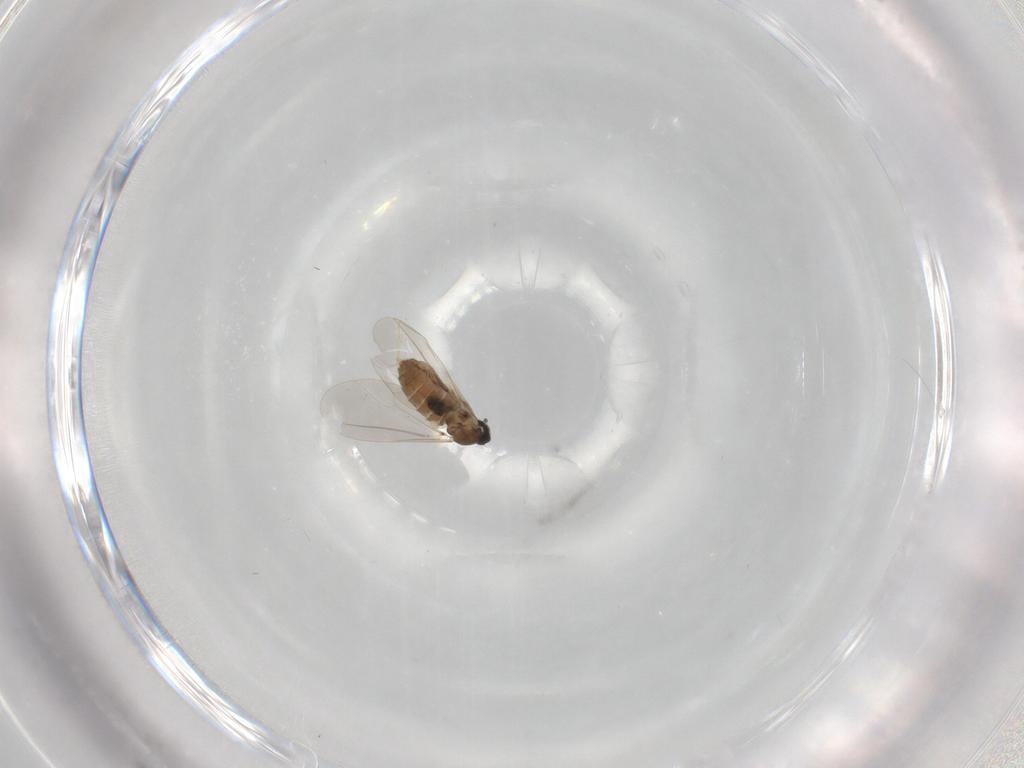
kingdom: Animalia
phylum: Arthropoda
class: Insecta
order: Diptera
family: Cecidomyiidae
